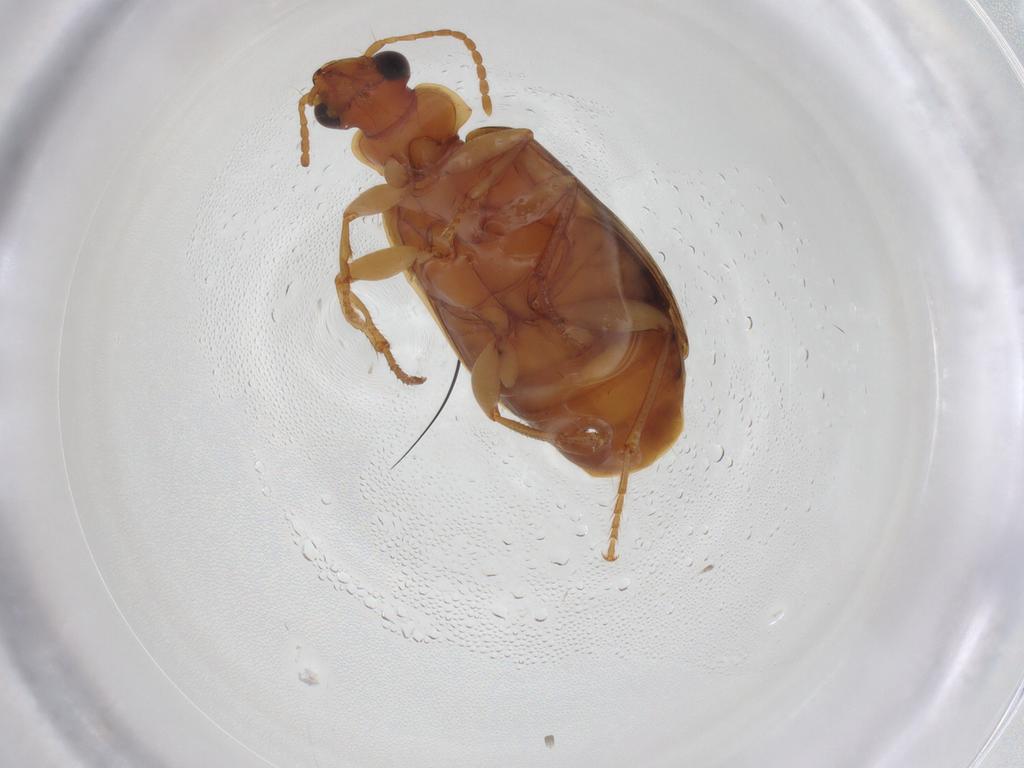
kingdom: Animalia
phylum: Arthropoda
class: Insecta
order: Coleoptera
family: Carabidae
